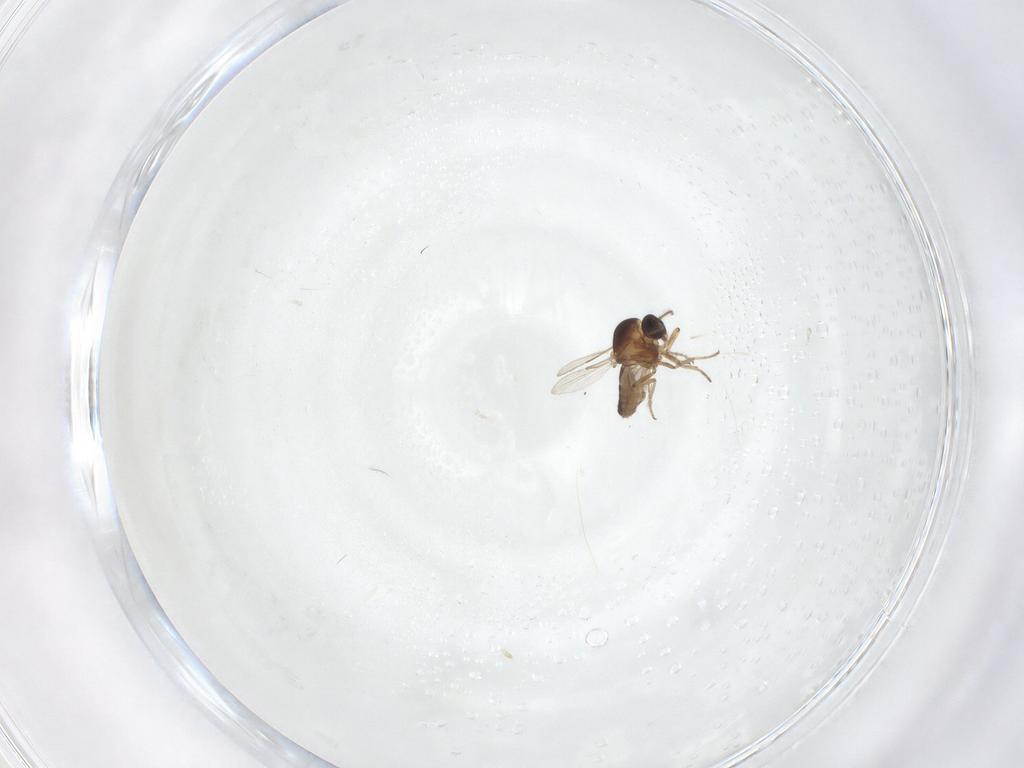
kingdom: Animalia
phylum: Arthropoda
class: Insecta
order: Diptera
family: Ceratopogonidae
